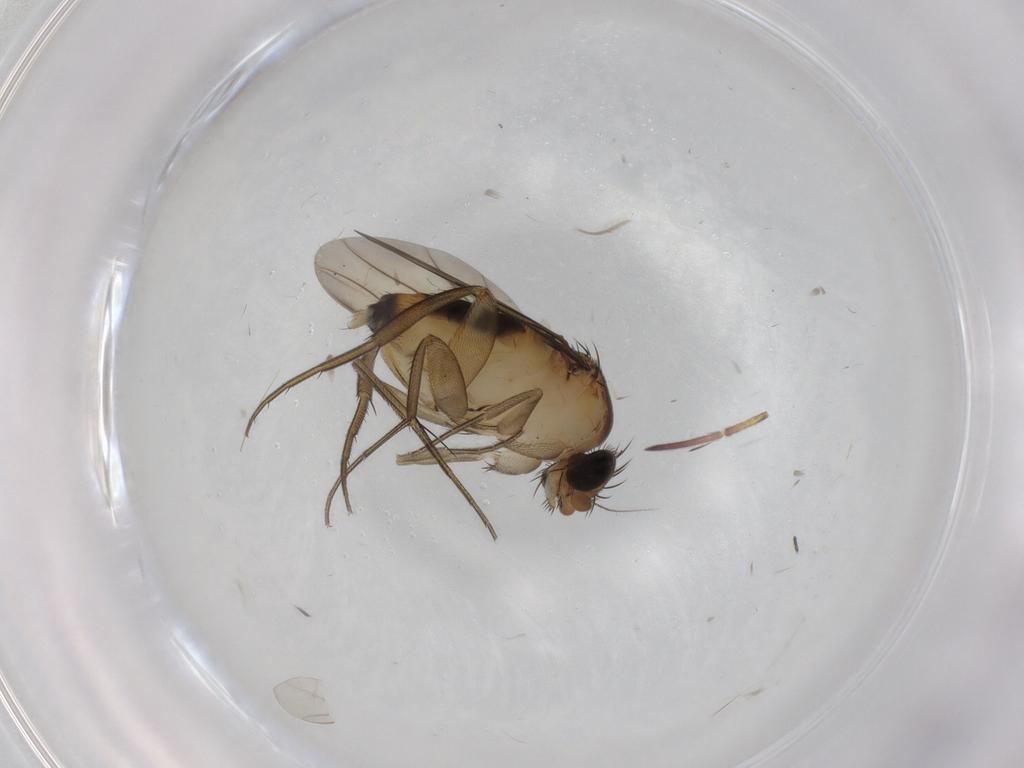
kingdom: Animalia
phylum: Arthropoda
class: Insecta
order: Diptera
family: Chironomidae
